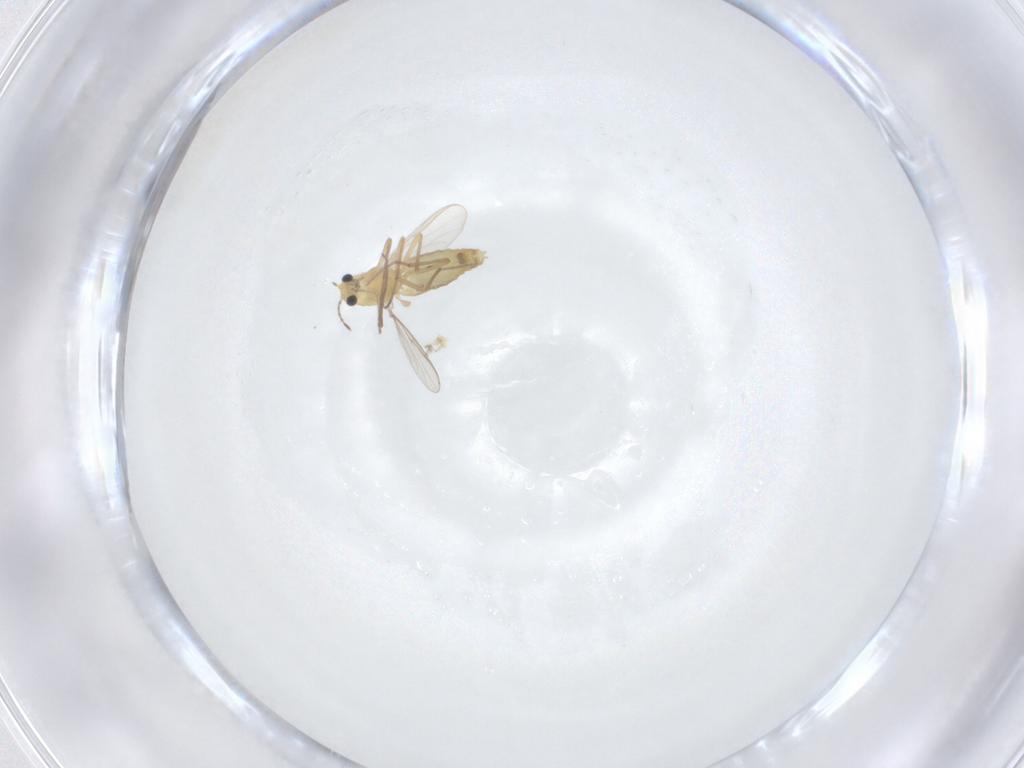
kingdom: Animalia
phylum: Arthropoda
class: Insecta
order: Diptera
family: Chironomidae
